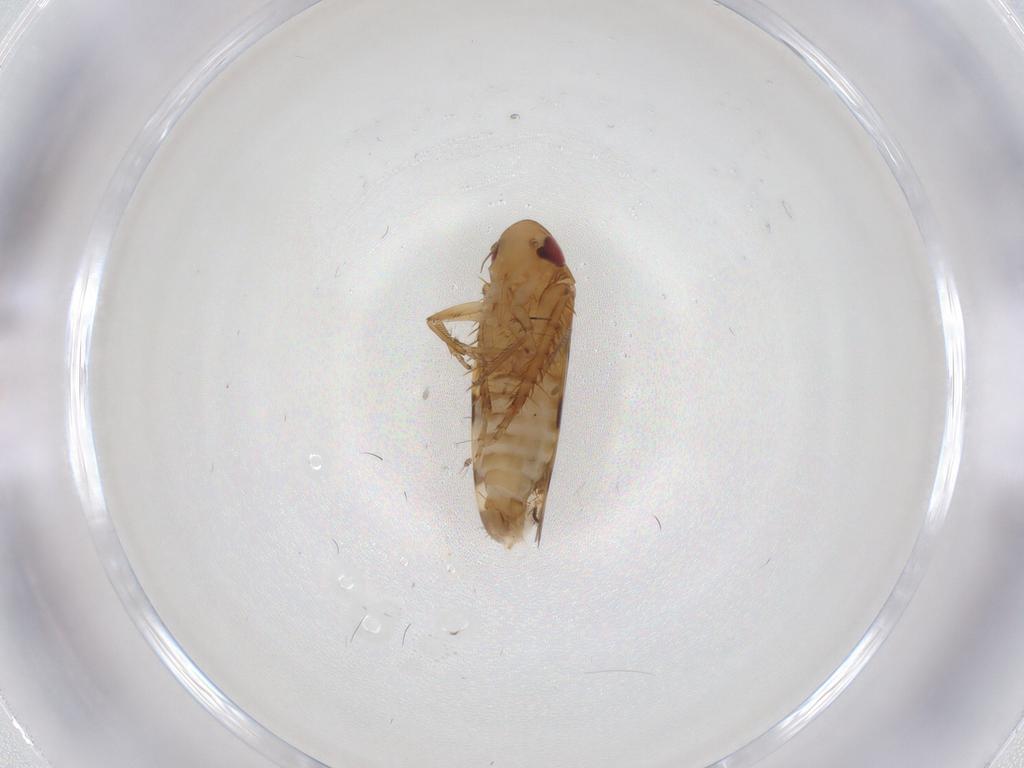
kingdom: Animalia
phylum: Arthropoda
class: Insecta
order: Hemiptera
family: Cicadellidae
